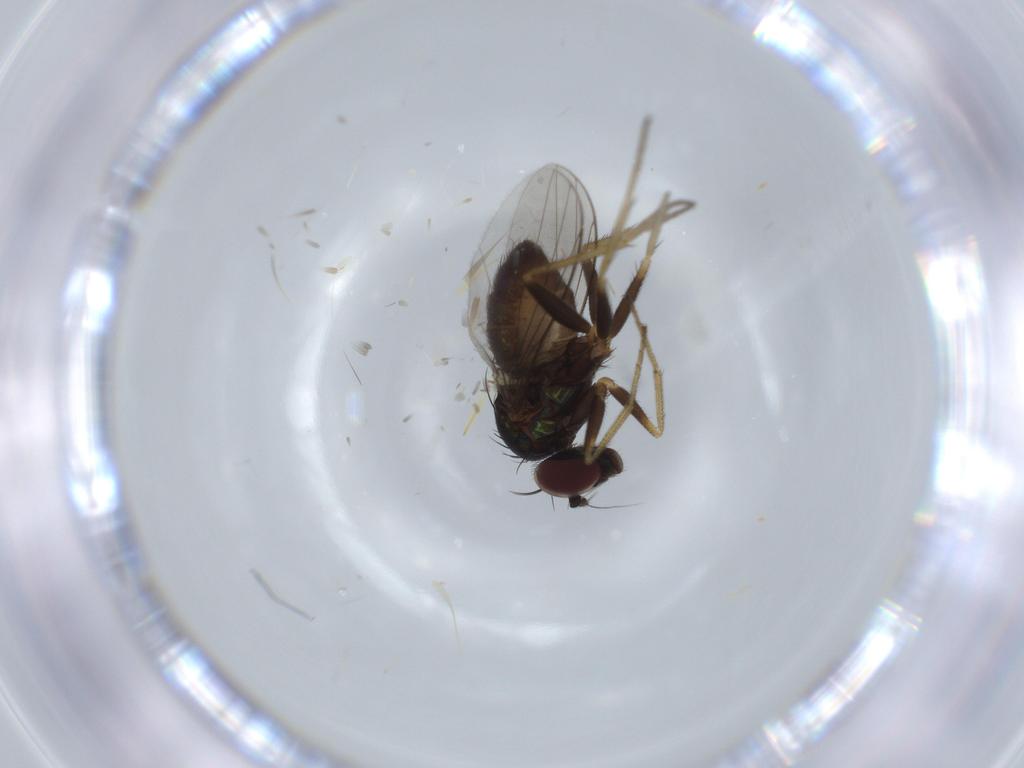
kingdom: Animalia
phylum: Arthropoda
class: Insecta
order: Diptera
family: Dolichopodidae
